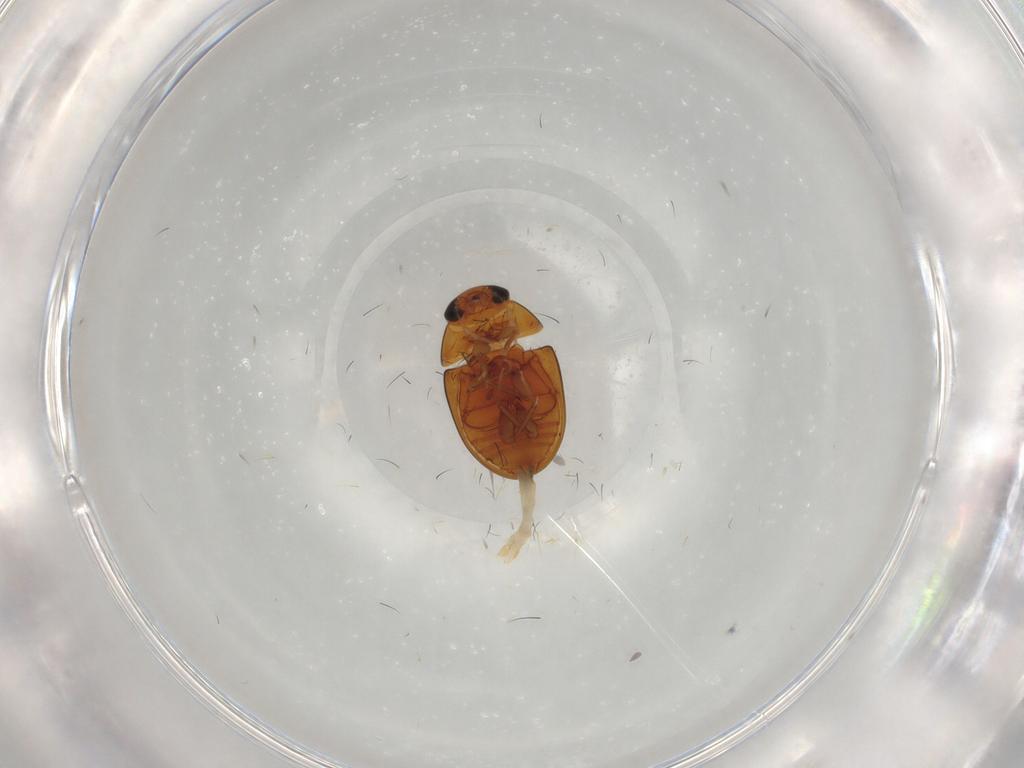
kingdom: Animalia
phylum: Arthropoda
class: Insecta
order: Coleoptera
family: Phalacridae
